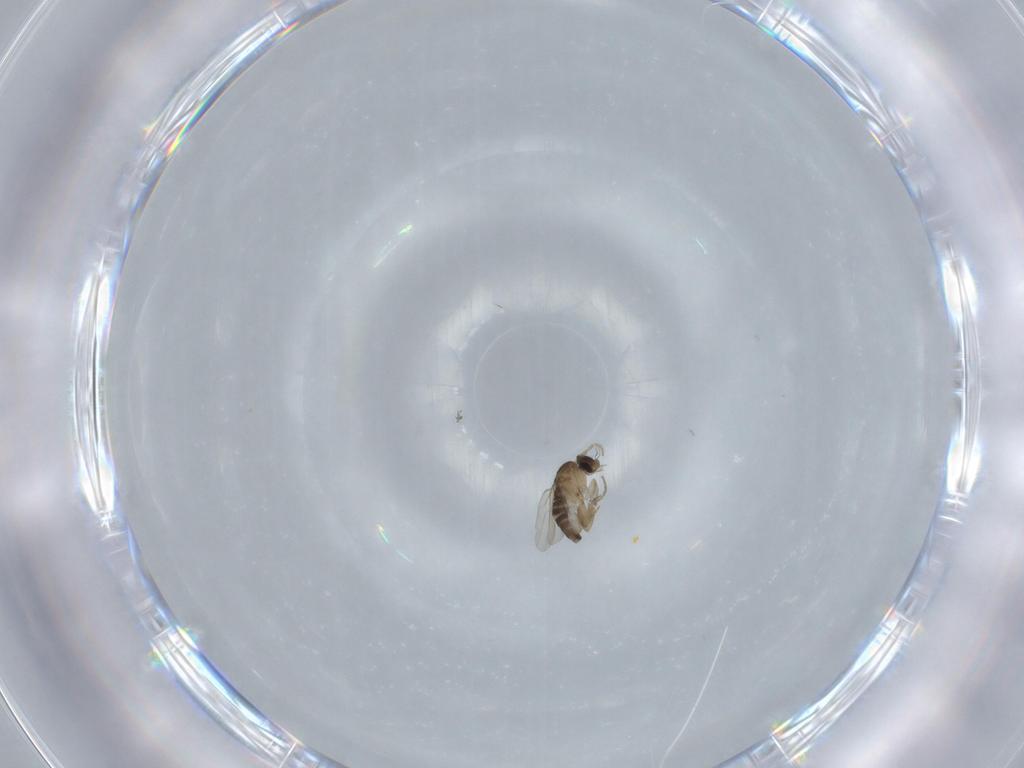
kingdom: Animalia
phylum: Arthropoda
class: Insecta
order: Diptera
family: Phoridae
